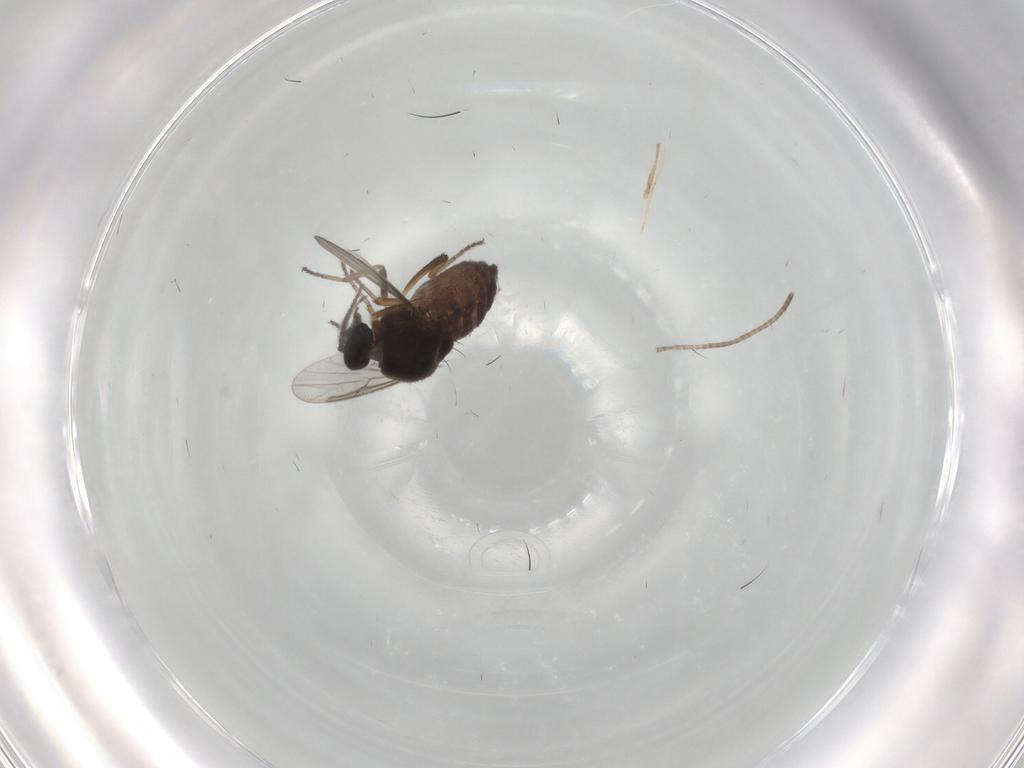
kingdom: Animalia
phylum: Arthropoda
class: Insecta
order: Diptera
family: Ceratopogonidae
